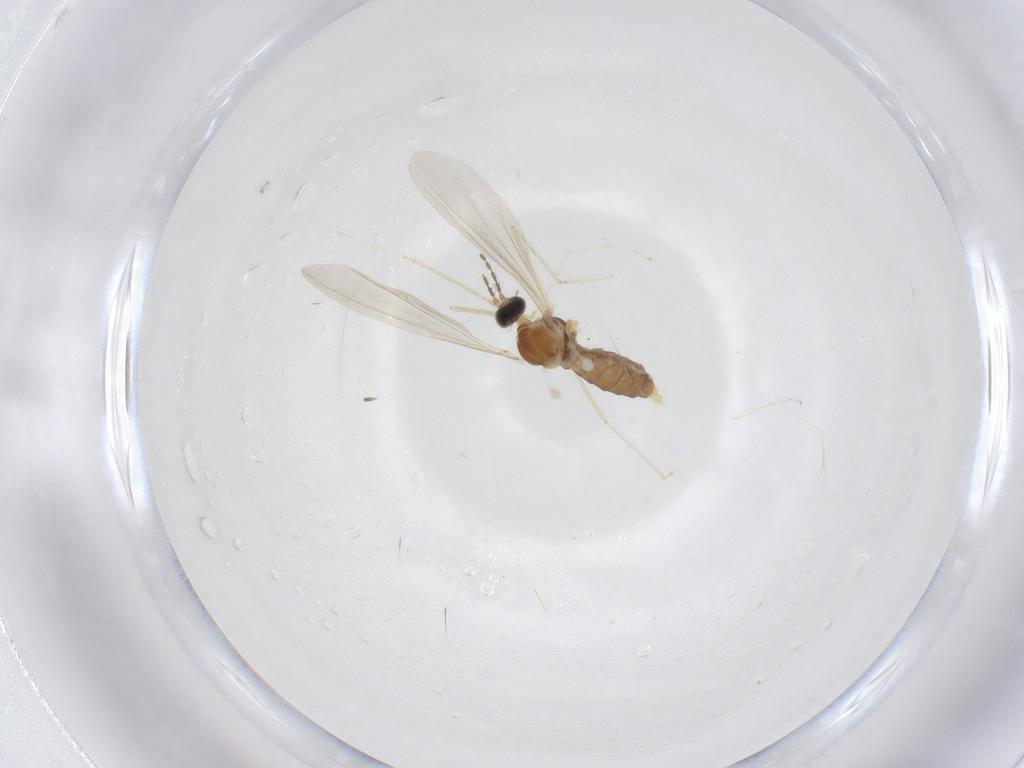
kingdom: Animalia
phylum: Arthropoda
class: Insecta
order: Diptera
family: Cecidomyiidae
